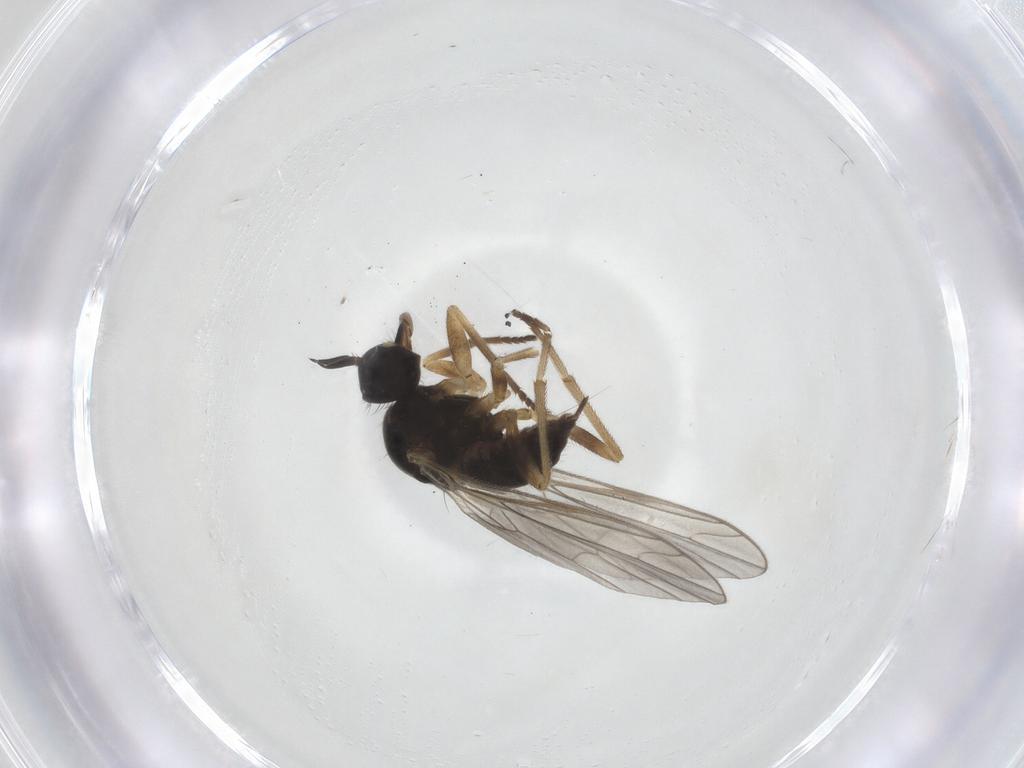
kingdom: Animalia
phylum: Arthropoda
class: Insecta
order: Diptera
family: Empididae
